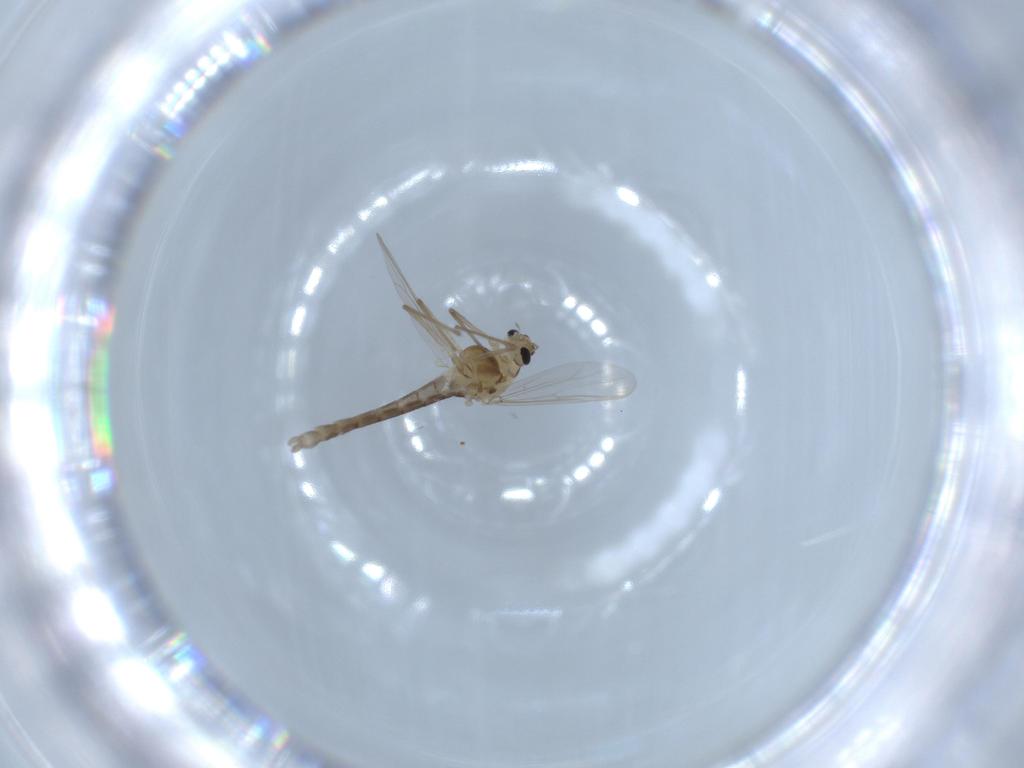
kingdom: Animalia
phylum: Arthropoda
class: Insecta
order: Diptera
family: Chironomidae
